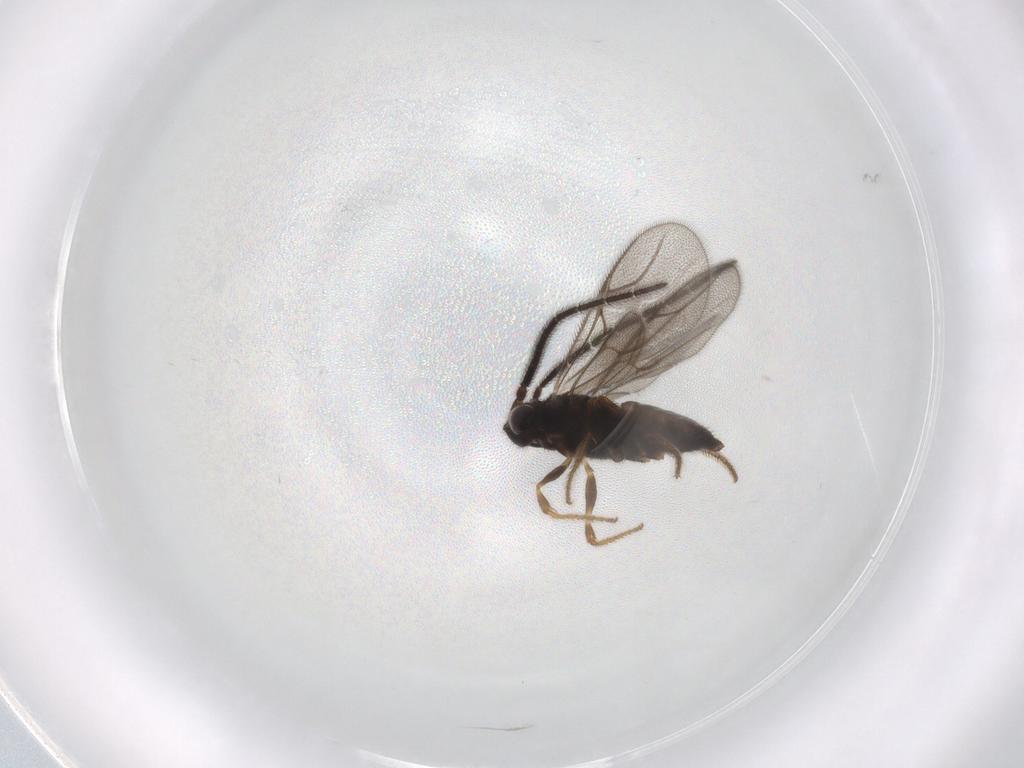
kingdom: Animalia
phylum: Arthropoda
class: Insecta
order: Hymenoptera
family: Dryinidae
